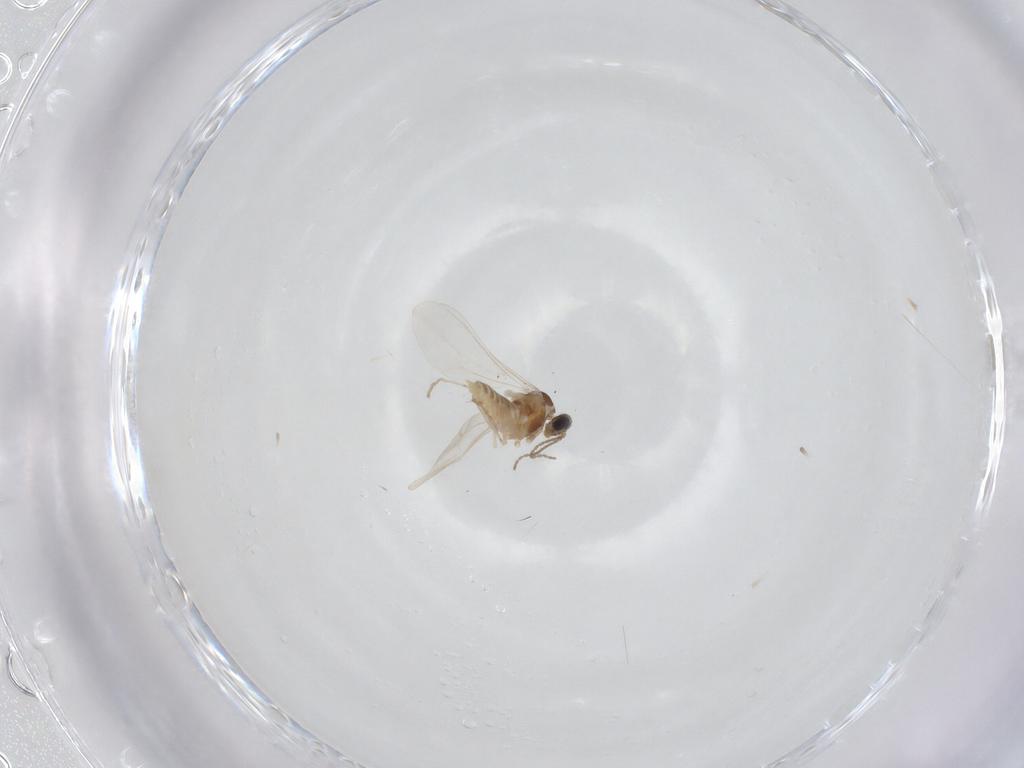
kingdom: Animalia
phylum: Arthropoda
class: Insecta
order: Diptera
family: Cecidomyiidae
